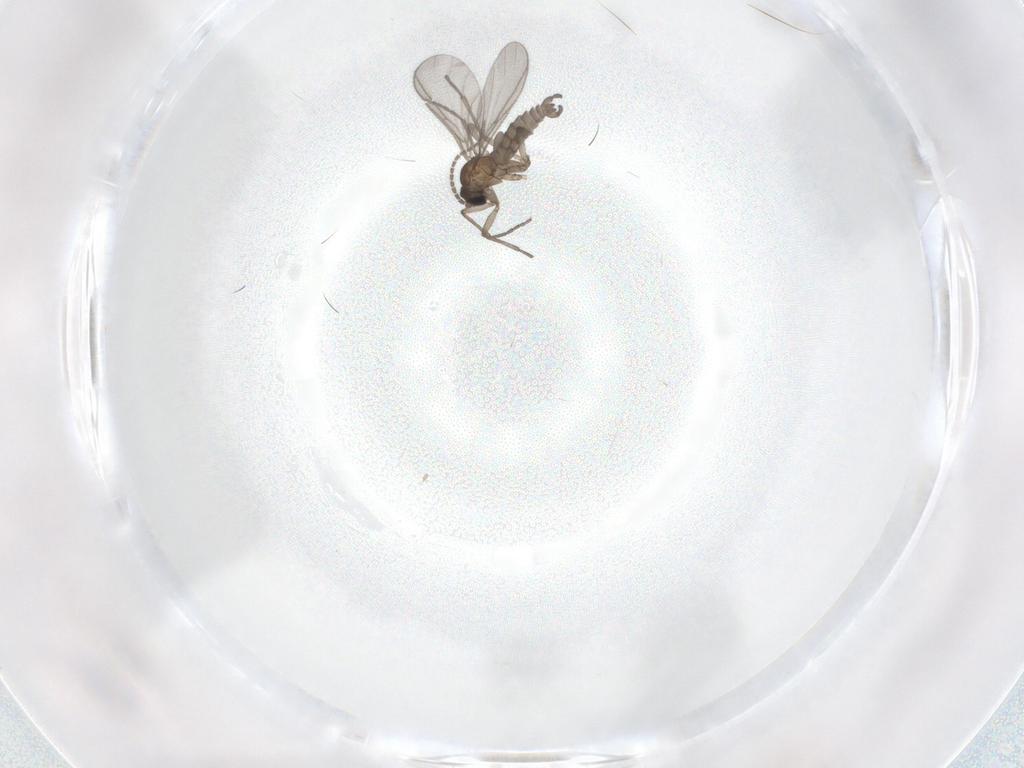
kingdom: Animalia
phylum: Arthropoda
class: Insecta
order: Diptera
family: Sciaridae
